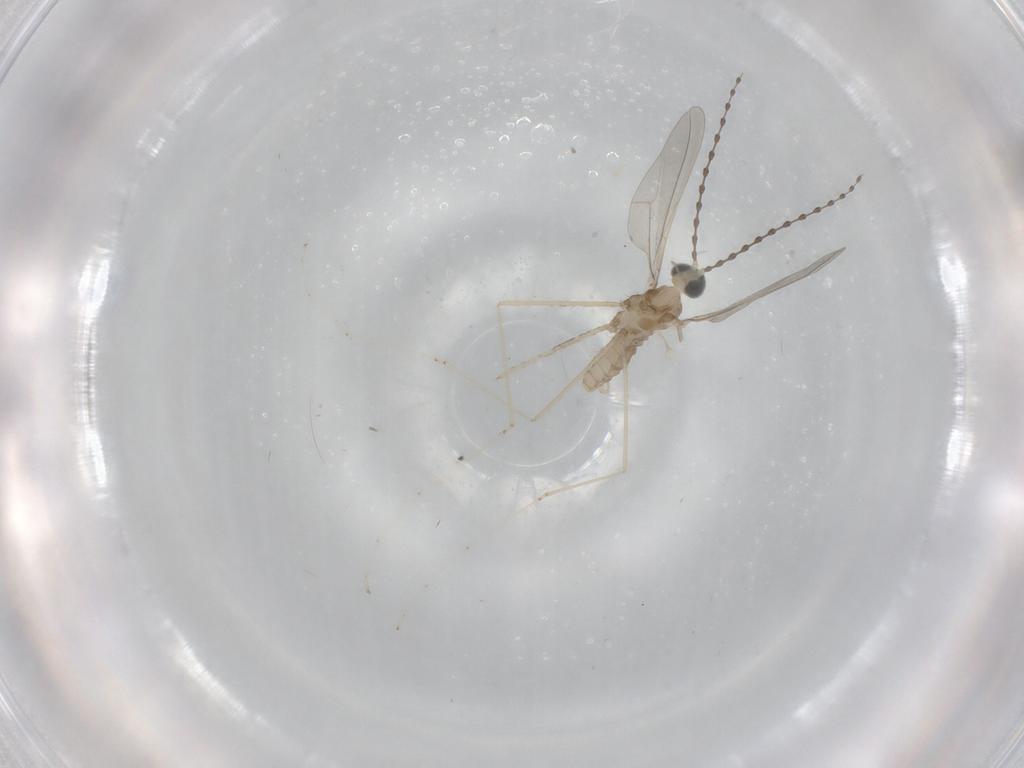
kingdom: Animalia
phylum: Arthropoda
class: Insecta
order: Diptera
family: Cecidomyiidae
